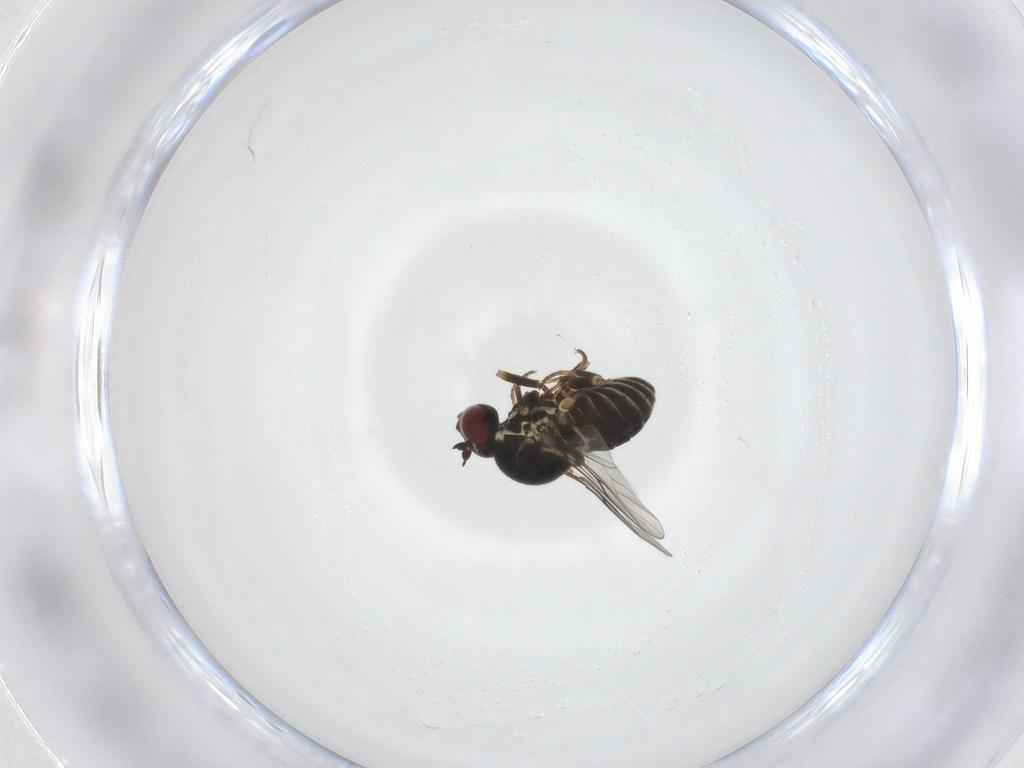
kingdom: Animalia
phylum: Arthropoda
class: Insecta
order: Diptera
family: Mythicomyiidae
